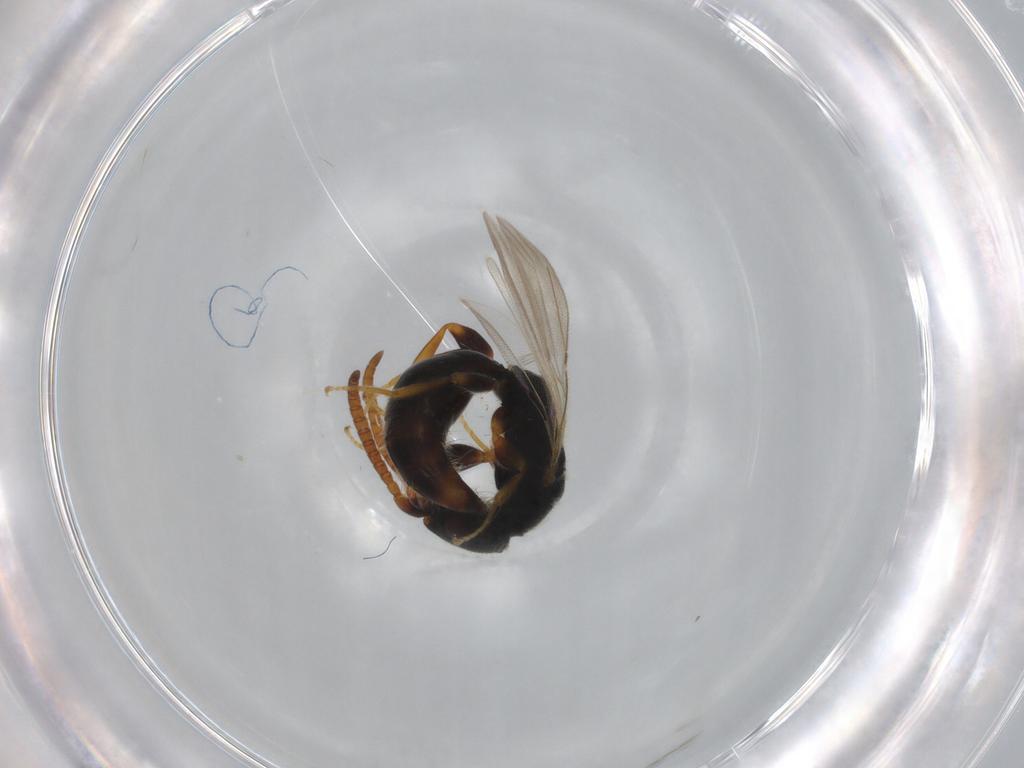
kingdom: Animalia
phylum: Arthropoda
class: Insecta
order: Hymenoptera
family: Bethylidae
